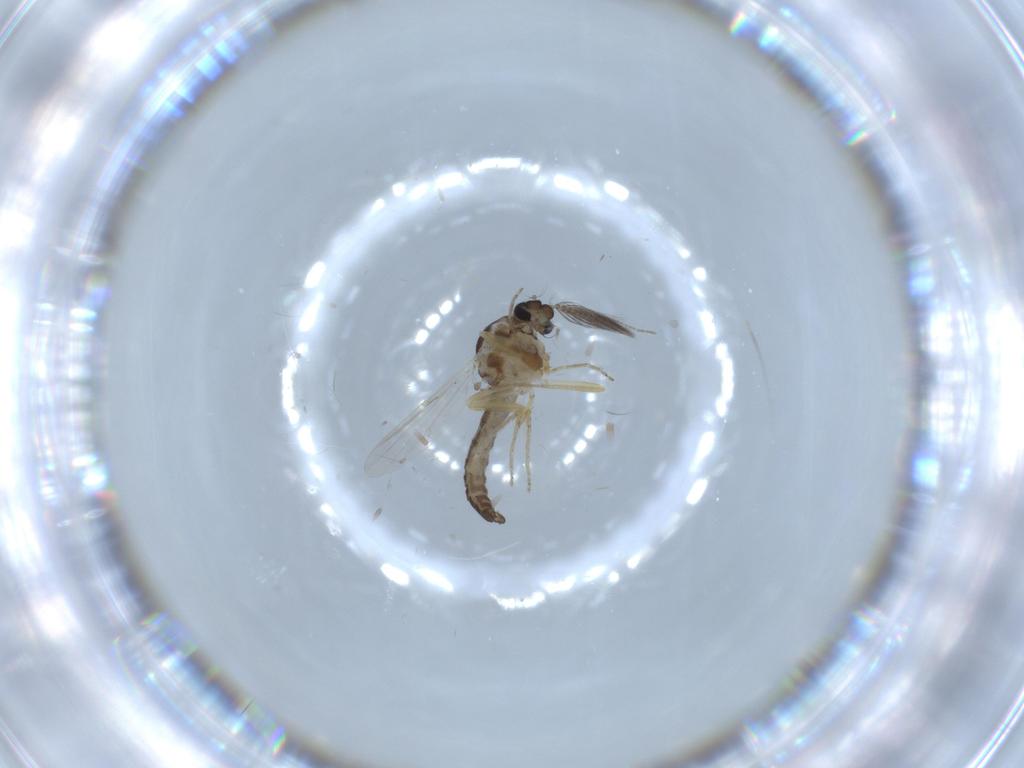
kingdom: Animalia
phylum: Arthropoda
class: Insecta
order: Diptera
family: Ceratopogonidae
